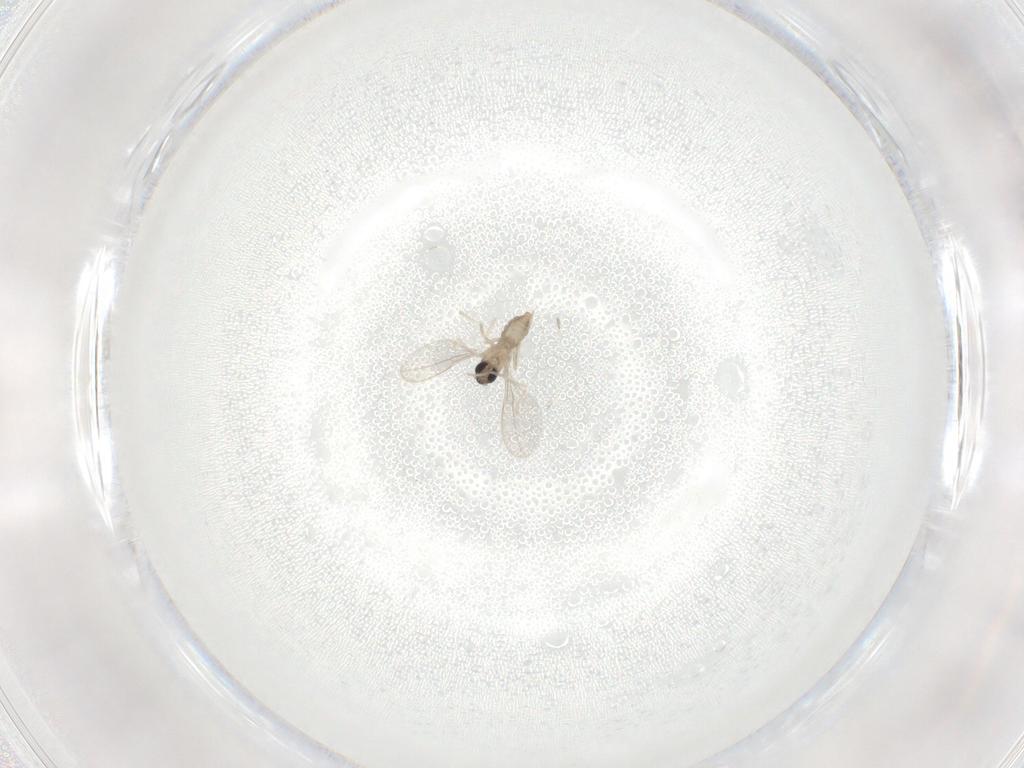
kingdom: Animalia
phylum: Arthropoda
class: Insecta
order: Diptera
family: Cecidomyiidae
